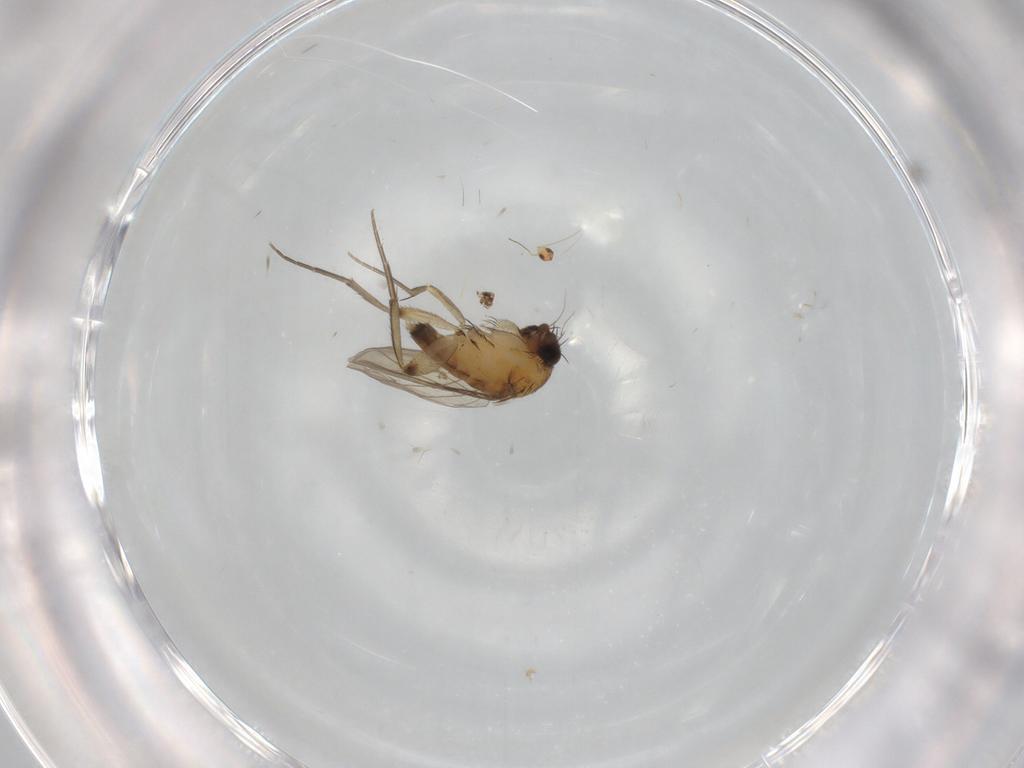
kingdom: Animalia
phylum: Arthropoda
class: Insecta
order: Diptera
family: Phoridae
